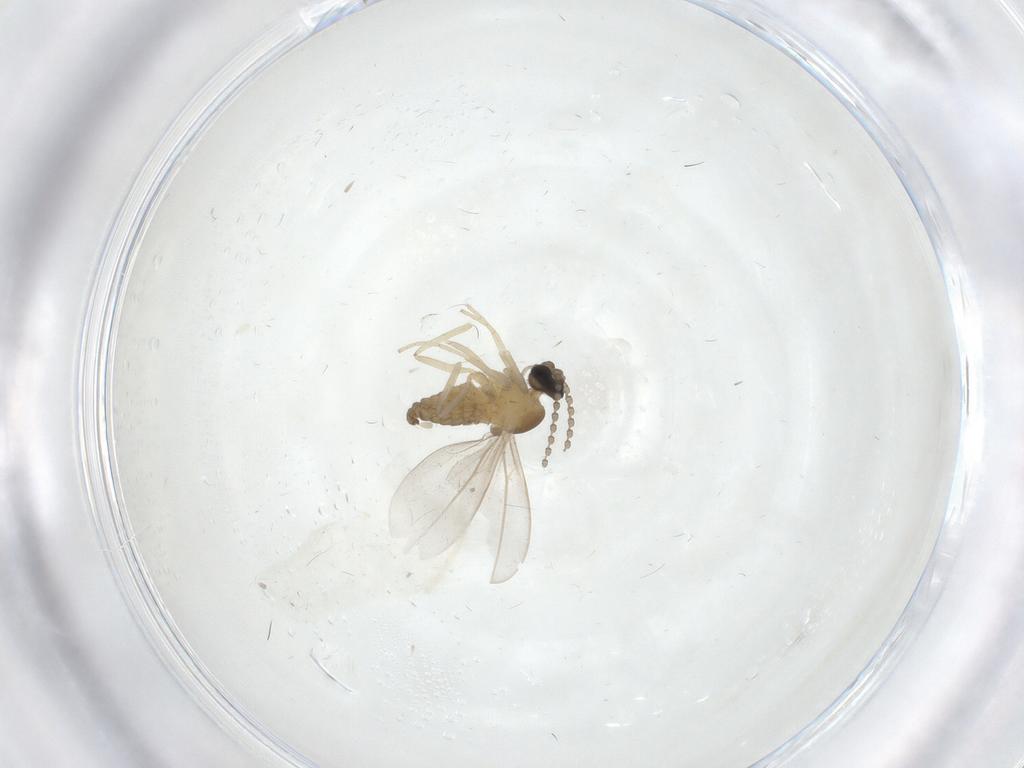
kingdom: Animalia
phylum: Arthropoda
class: Insecta
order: Diptera
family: Cecidomyiidae
